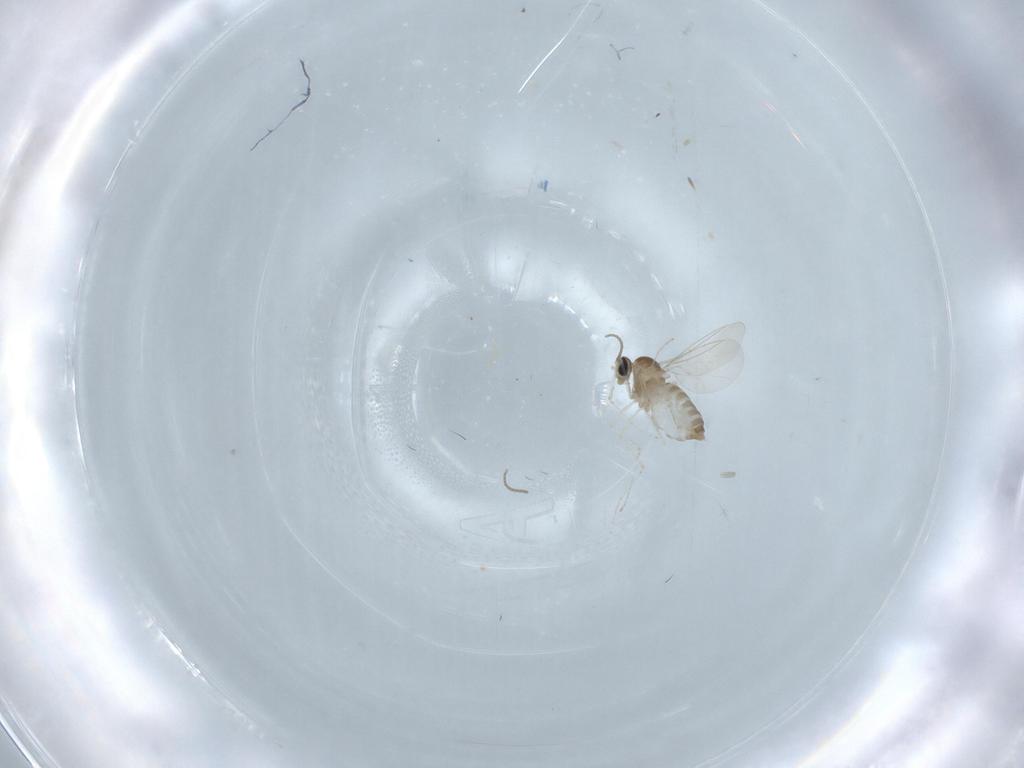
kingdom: Animalia
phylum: Arthropoda
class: Insecta
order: Diptera
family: Cecidomyiidae
